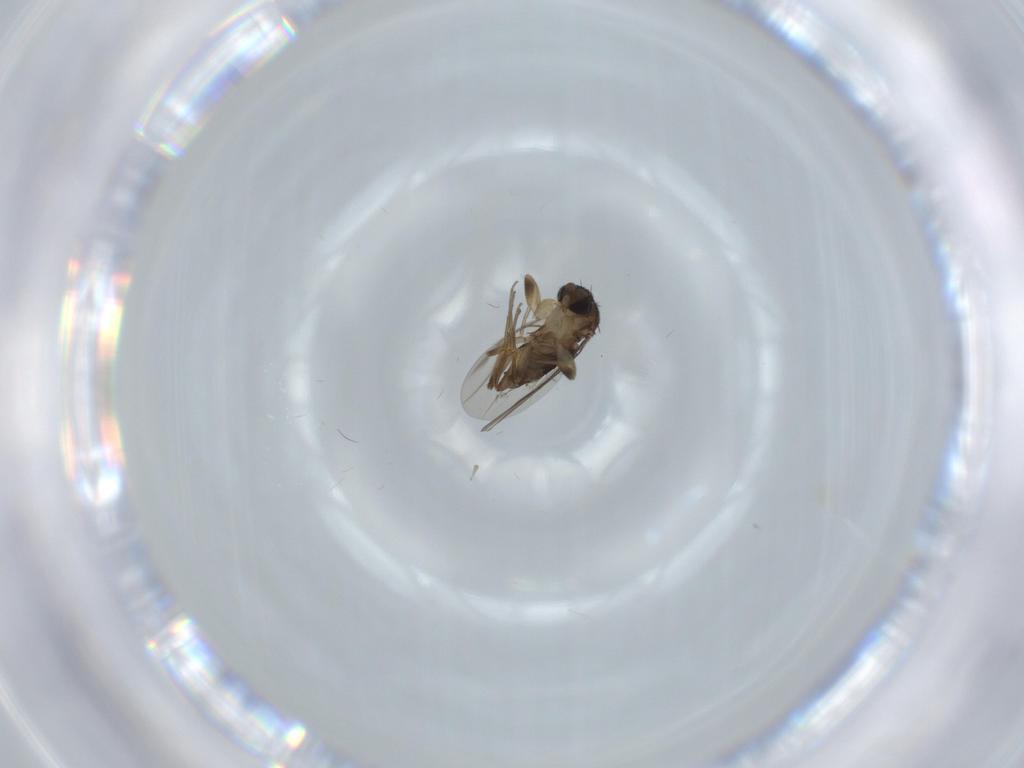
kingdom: Animalia
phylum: Arthropoda
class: Insecta
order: Diptera
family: Phoridae
